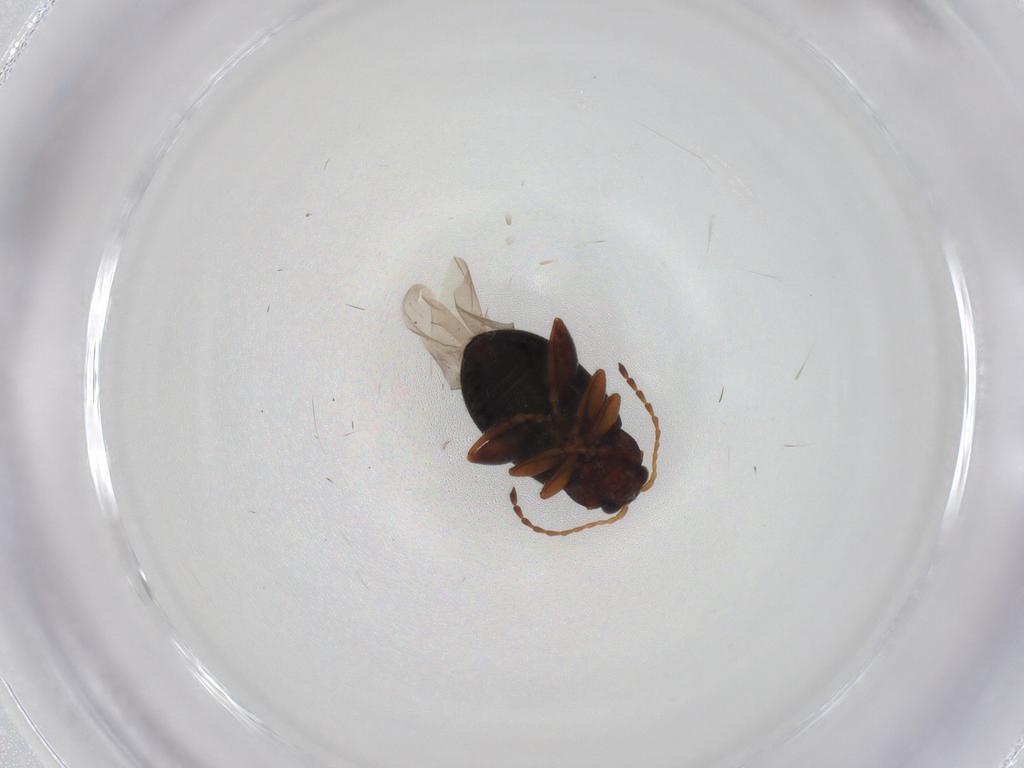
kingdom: Animalia
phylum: Arthropoda
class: Insecta
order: Coleoptera
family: Chrysomelidae
